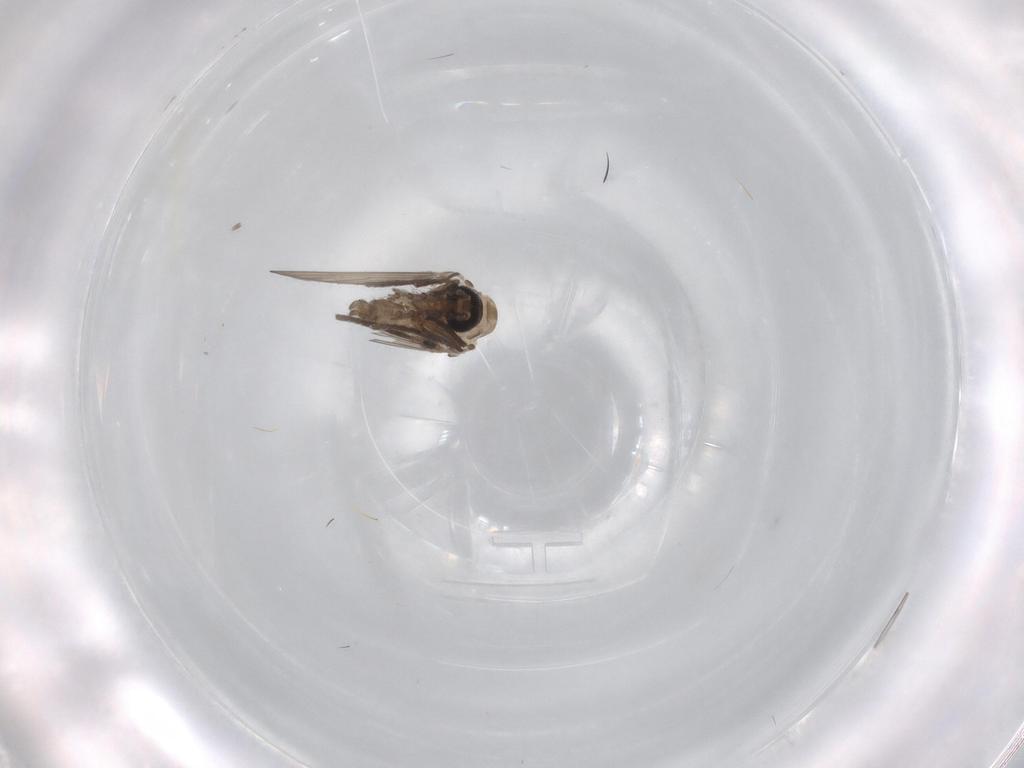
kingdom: Animalia
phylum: Arthropoda
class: Insecta
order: Diptera
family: Psychodidae
